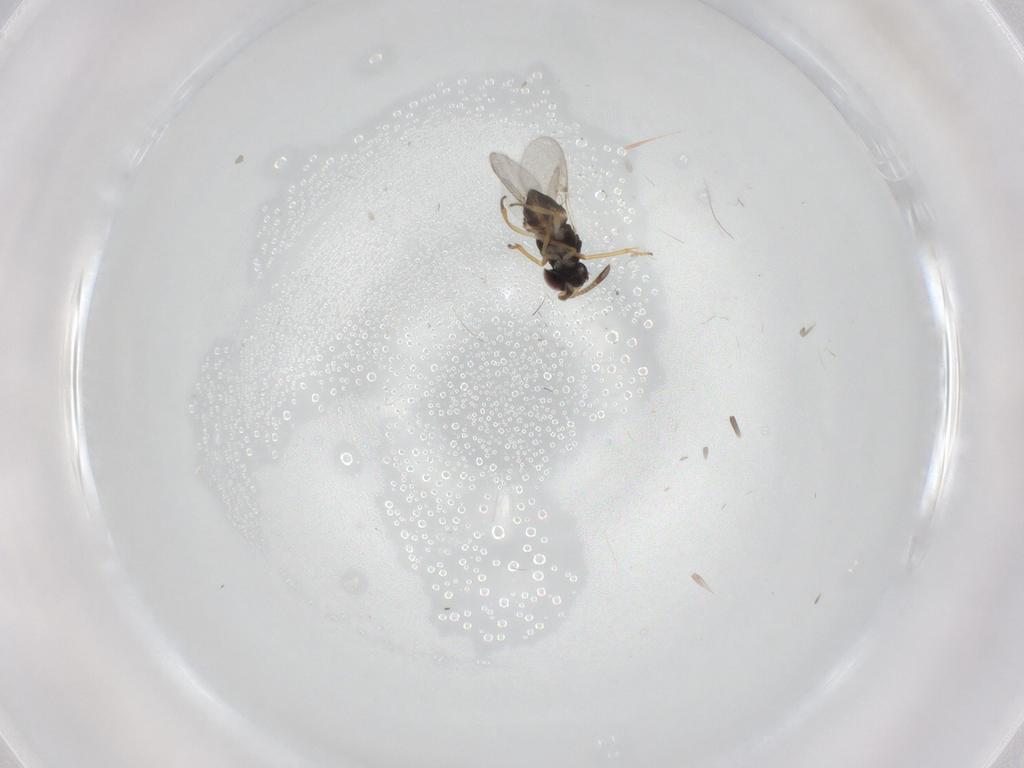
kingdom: Animalia
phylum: Arthropoda
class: Insecta
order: Hymenoptera
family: Encyrtidae
